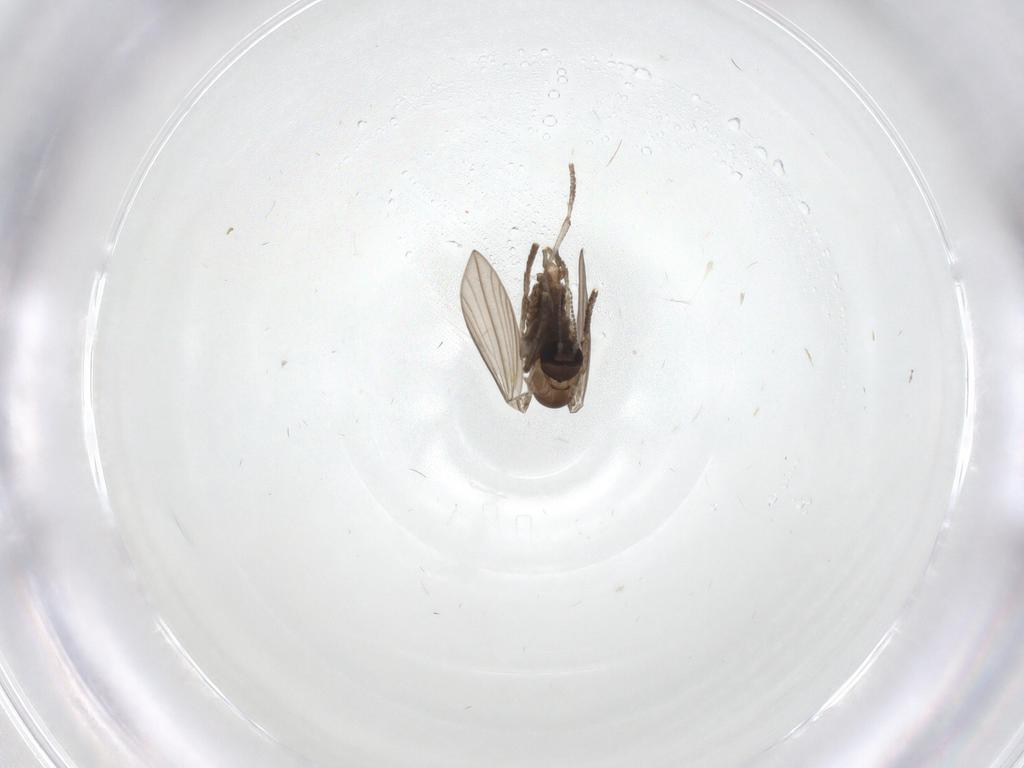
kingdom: Animalia
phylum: Arthropoda
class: Insecta
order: Diptera
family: Psychodidae
